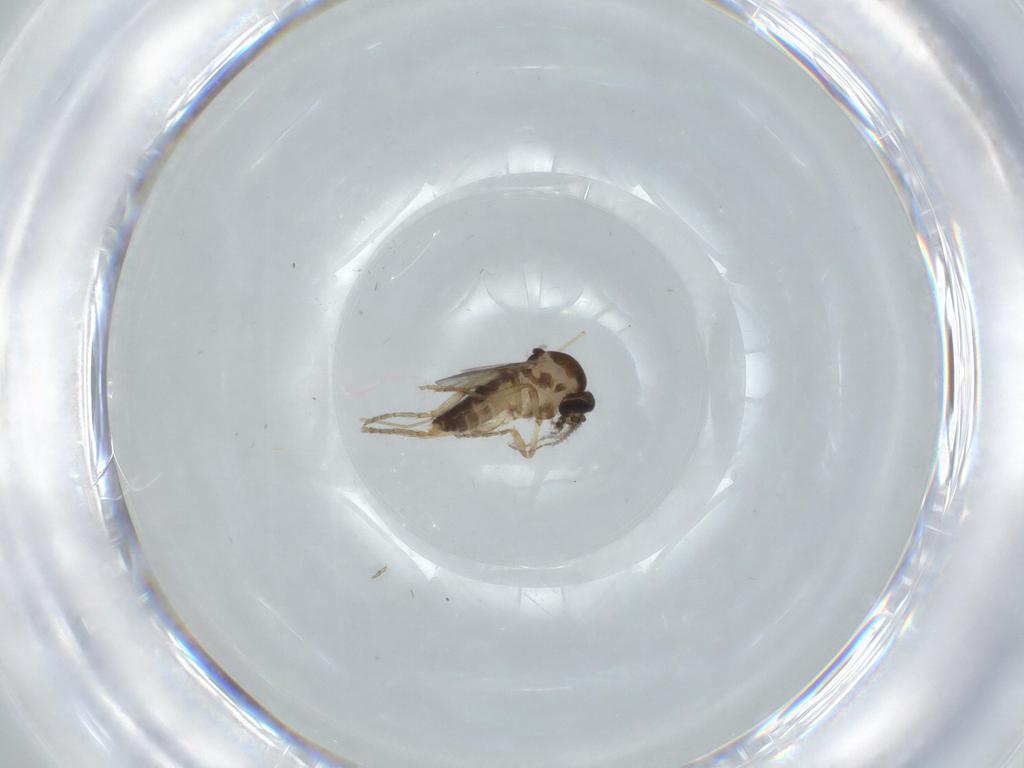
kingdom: Animalia
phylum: Arthropoda
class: Insecta
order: Diptera
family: Ceratopogonidae
